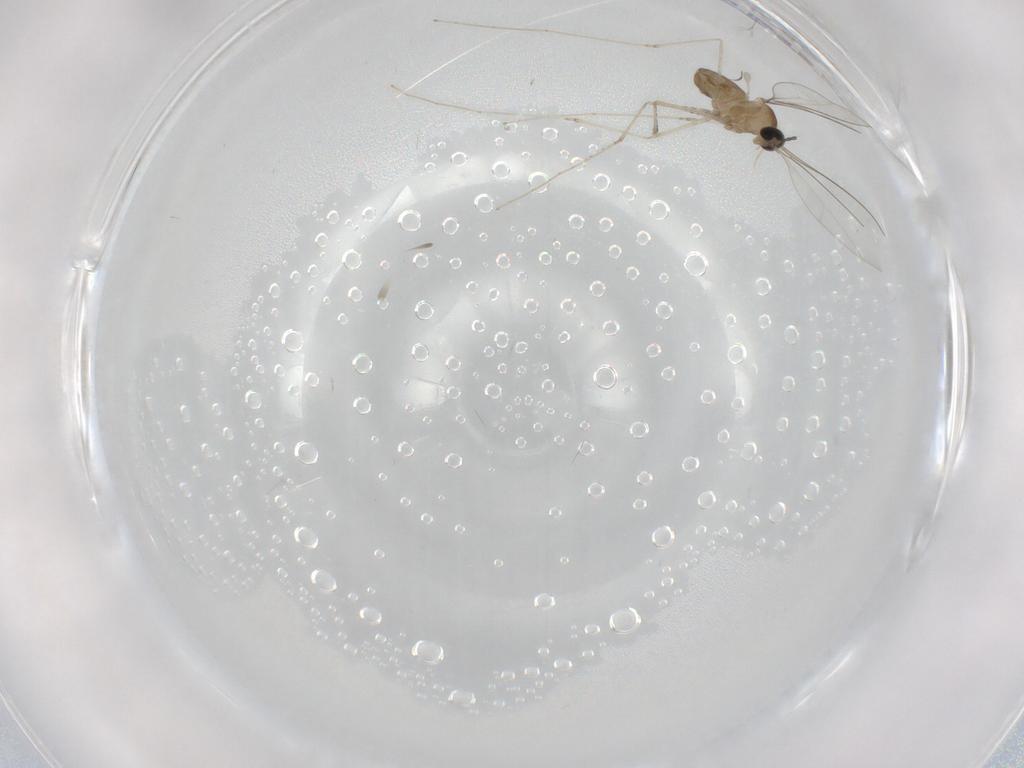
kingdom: Animalia
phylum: Arthropoda
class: Insecta
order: Diptera
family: Cecidomyiidae
